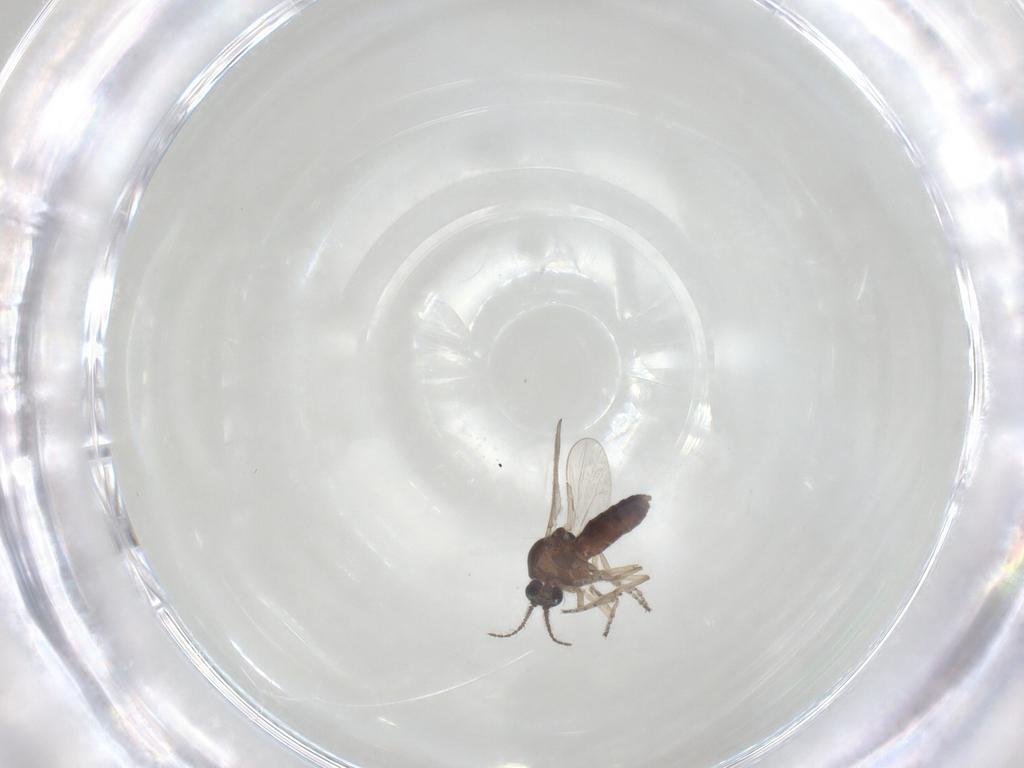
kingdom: Animalia
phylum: Arthropoda
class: Insecta
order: Diptera
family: Ceratopogonidae
